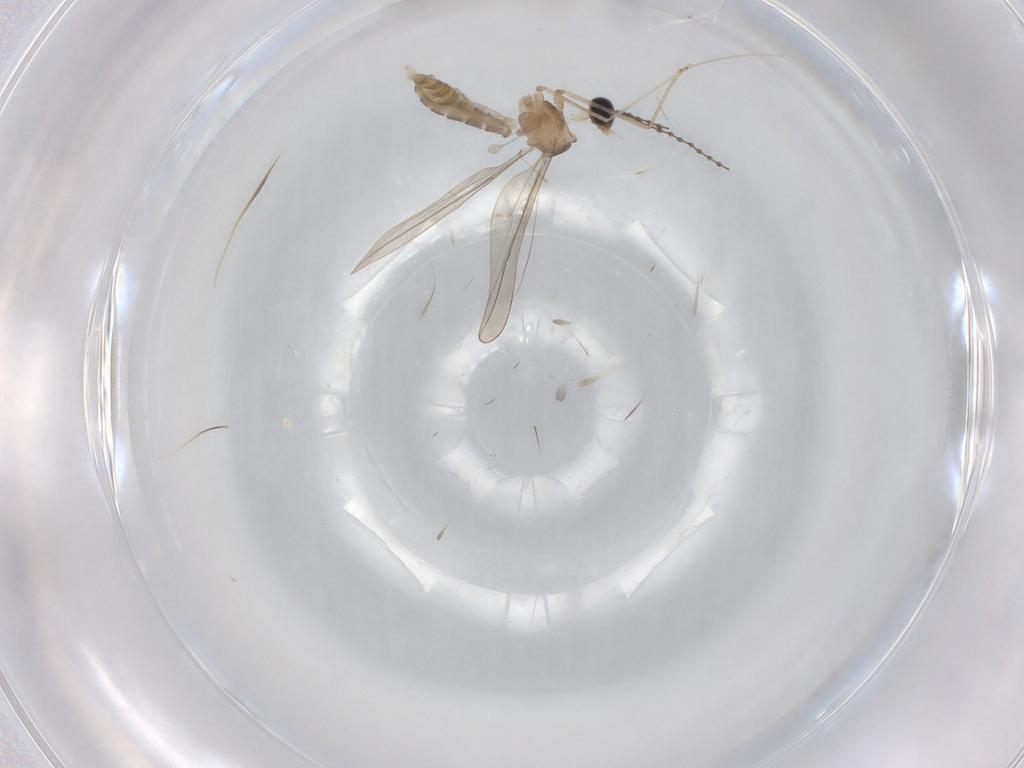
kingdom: Animalia
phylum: Arthropoda
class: Insecta
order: Diptera
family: Cecidomyiidae
